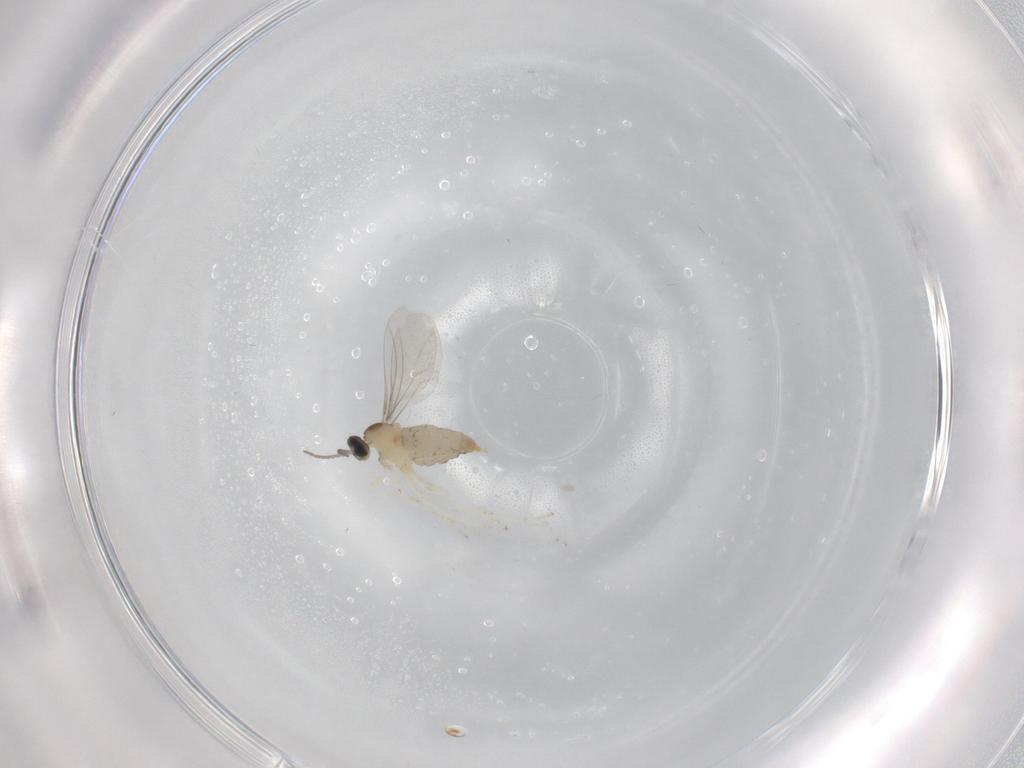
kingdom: Animalia
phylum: Arthropoda
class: Insecta
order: Diptera
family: Cecidomyiidae
